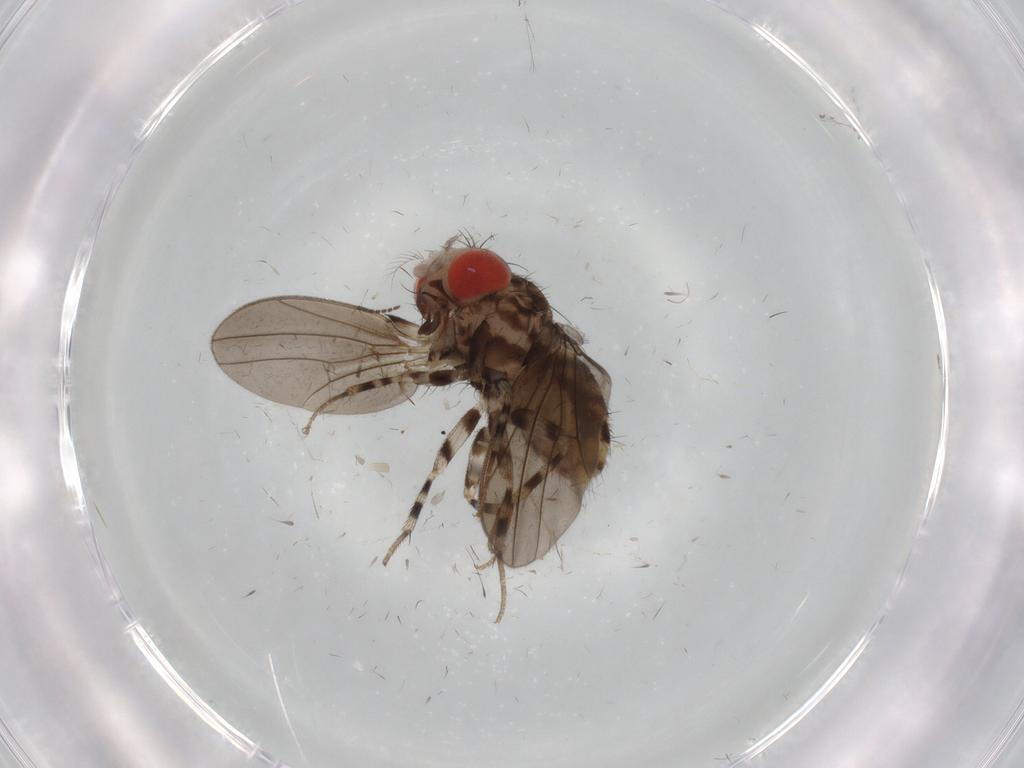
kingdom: Animalia
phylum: Arthropoda
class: Insecta
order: Diptera
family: Drosophilidae
